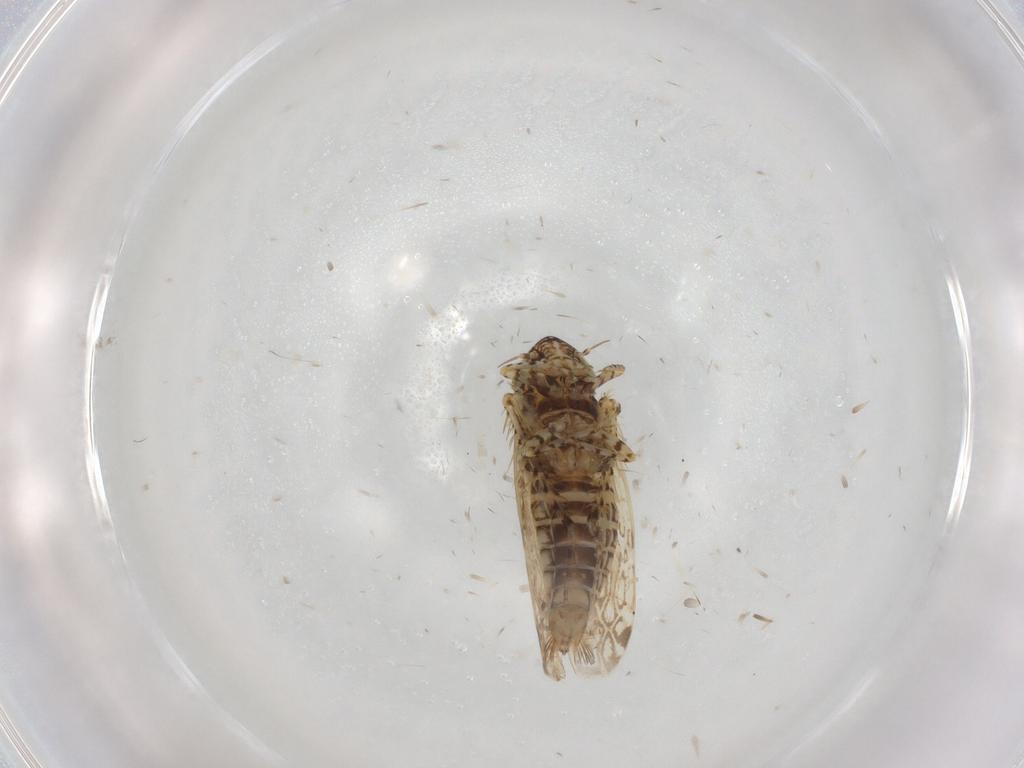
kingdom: Animalia
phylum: Arthropoda
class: Insecta
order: Hemiptera
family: Cicadellidae
